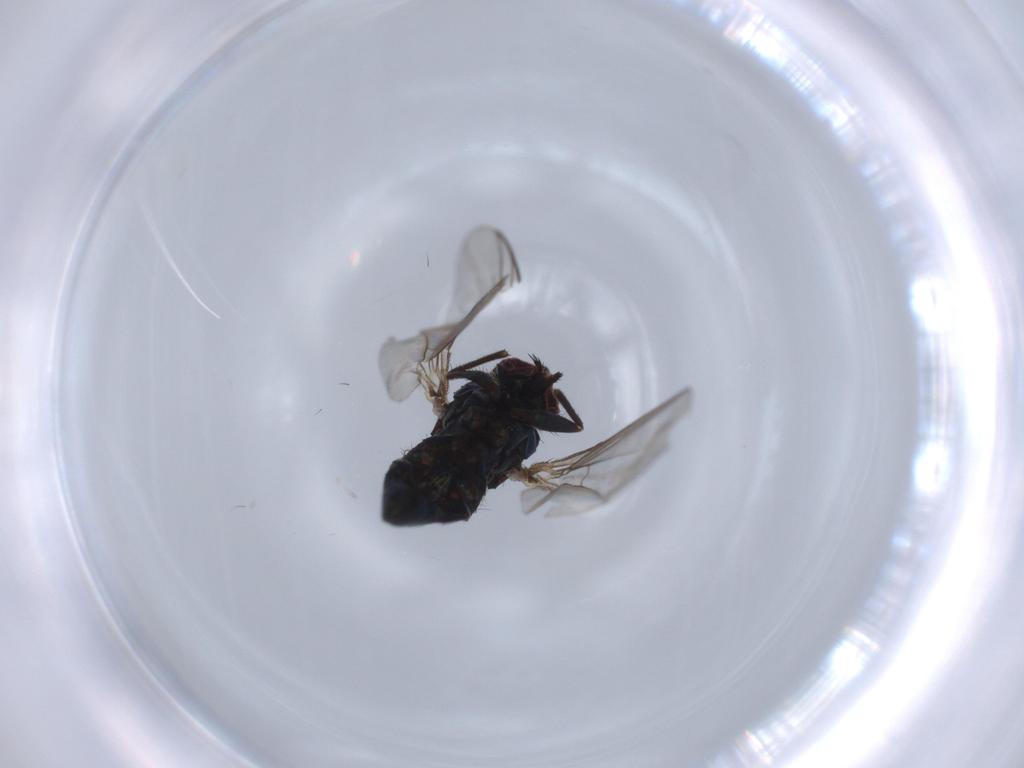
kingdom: Animalia
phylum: Arthropoda
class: Insecta
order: Diptera
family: Dolichopodidae
